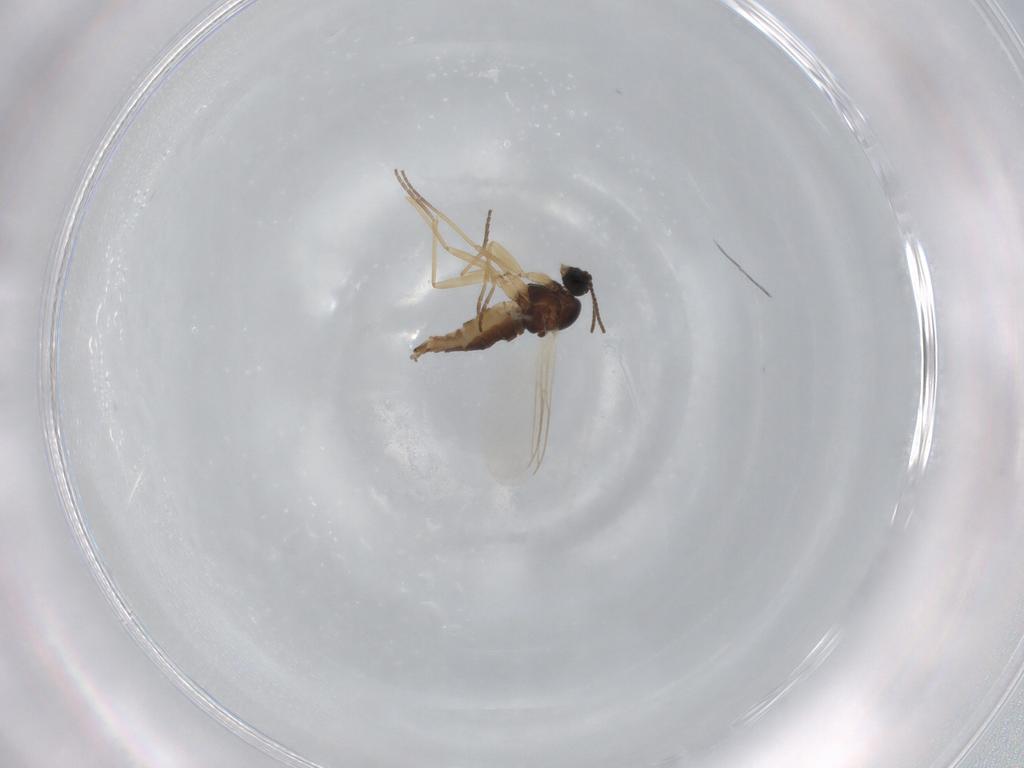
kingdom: Animalia
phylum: Arthropoda
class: Insecta
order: Diptera
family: Sciaridae
